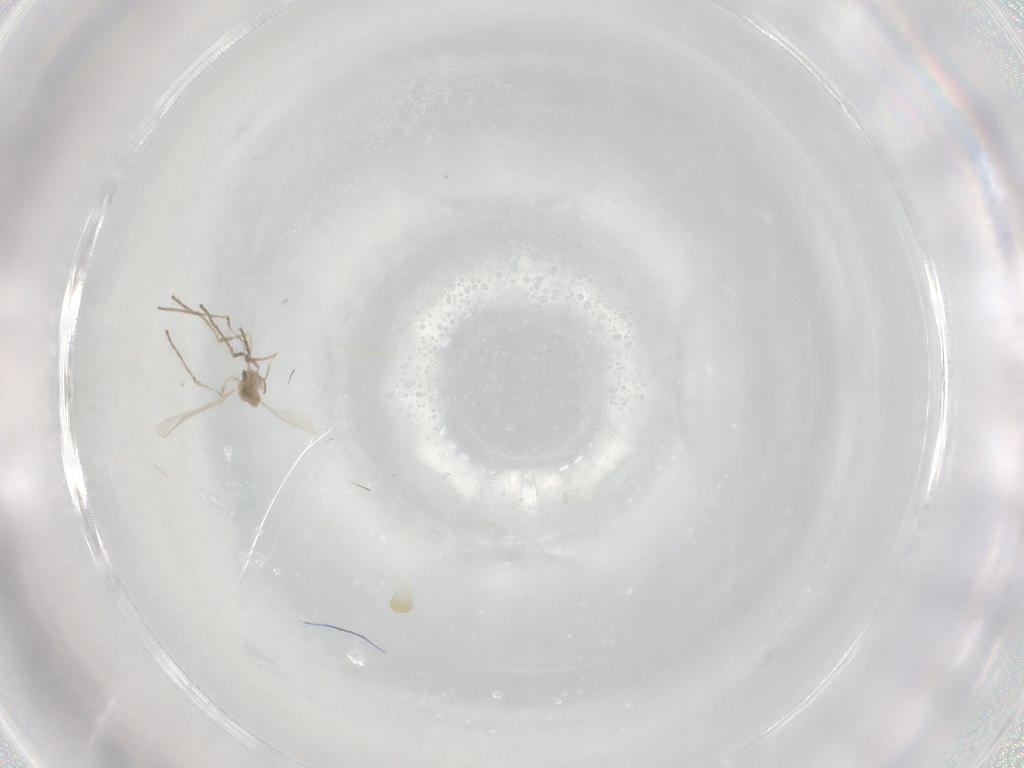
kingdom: Animalia
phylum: Arthropoda
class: Insecta
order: Diptera
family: Cecidomyiidae
